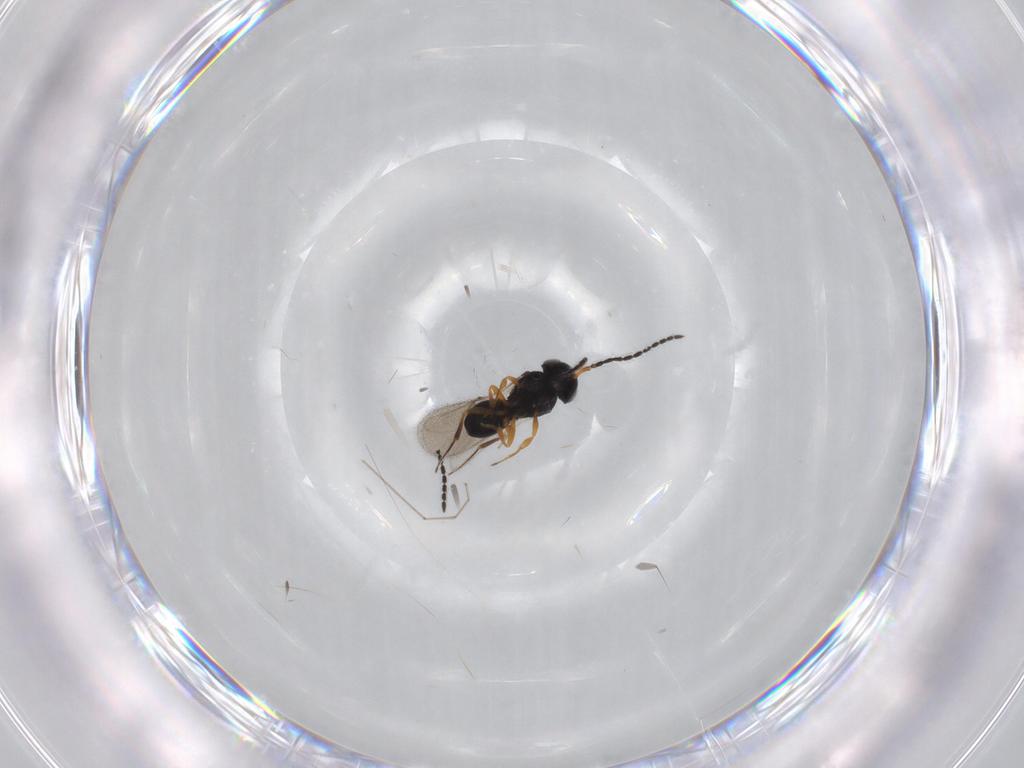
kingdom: Animalia
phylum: Arthropoda
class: Insecta
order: Hymenoptera
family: Scelionidae
